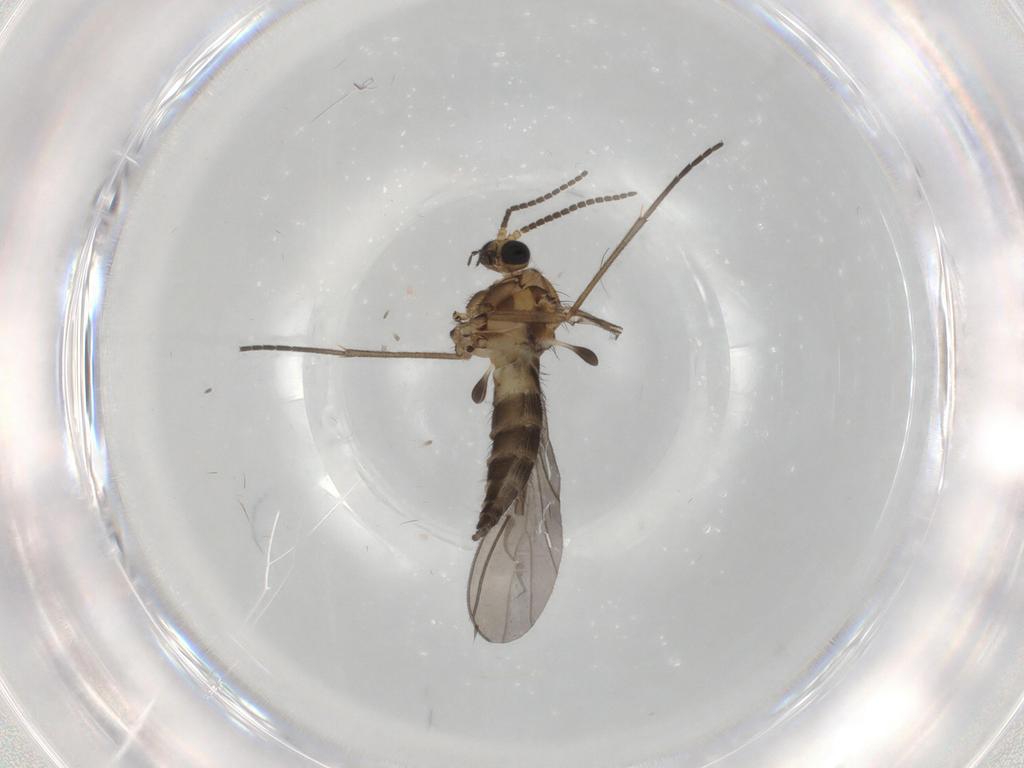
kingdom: Animalia
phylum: Arthropoda
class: Insecta
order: Diptera
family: Sciaridae
